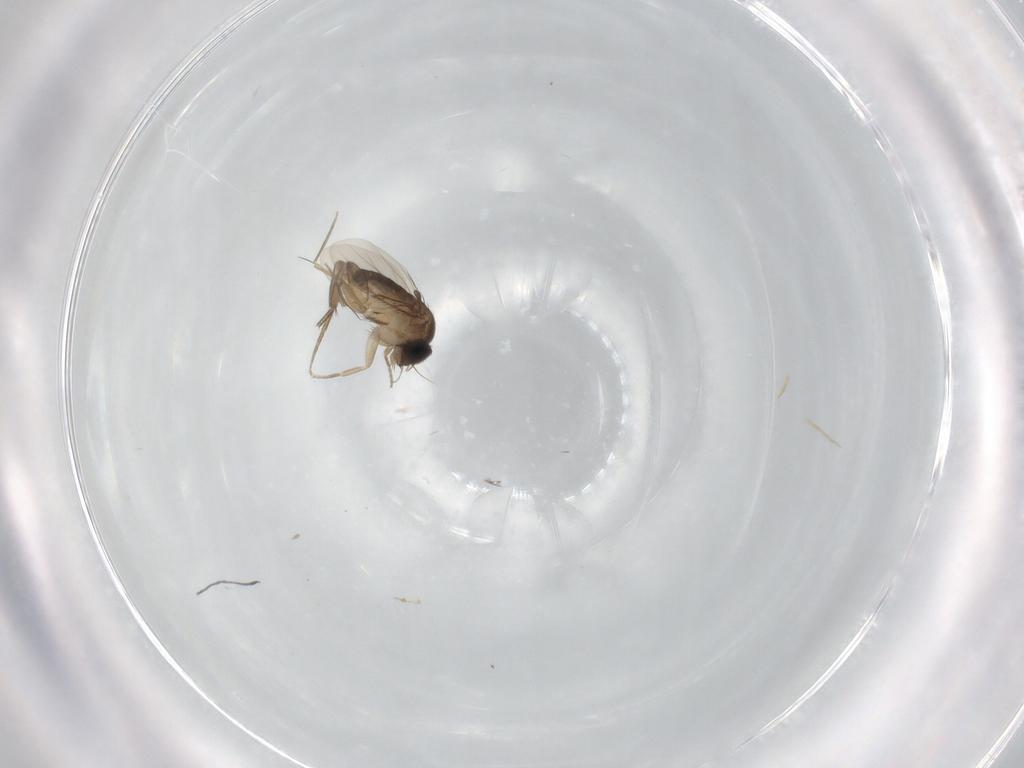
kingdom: Animalia
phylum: Arthropoda
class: Insecta
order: Diptera
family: Phoridae
